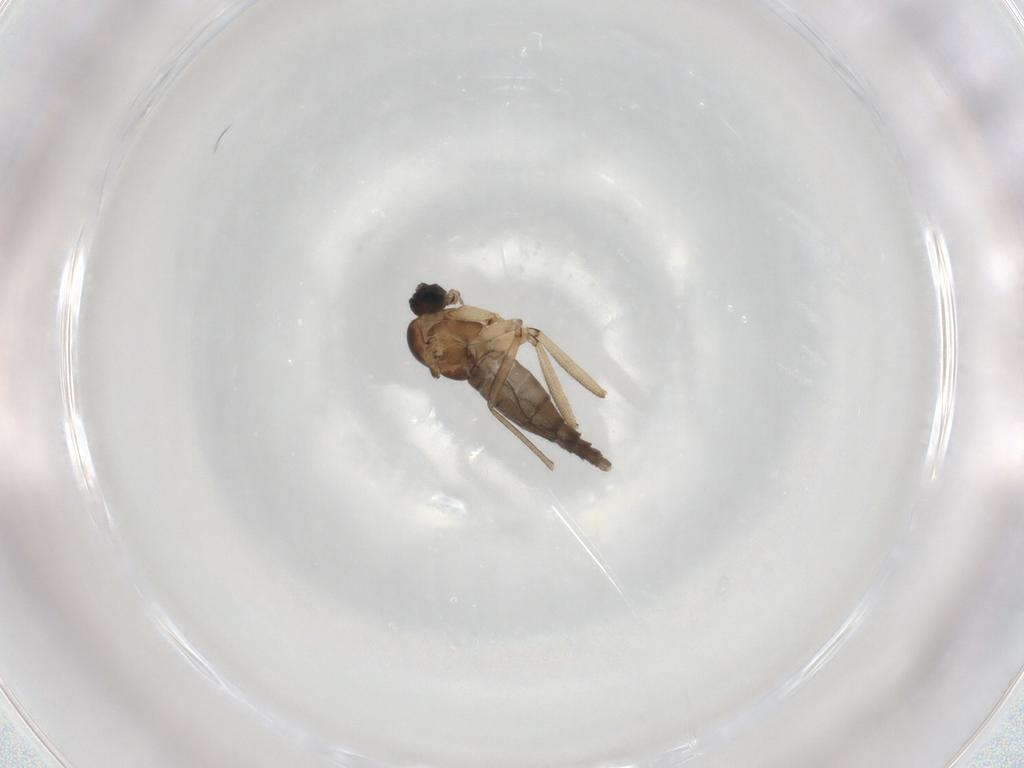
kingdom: Animalia
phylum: Arthropoda
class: Insecta
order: Diptera
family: Sciaridae
